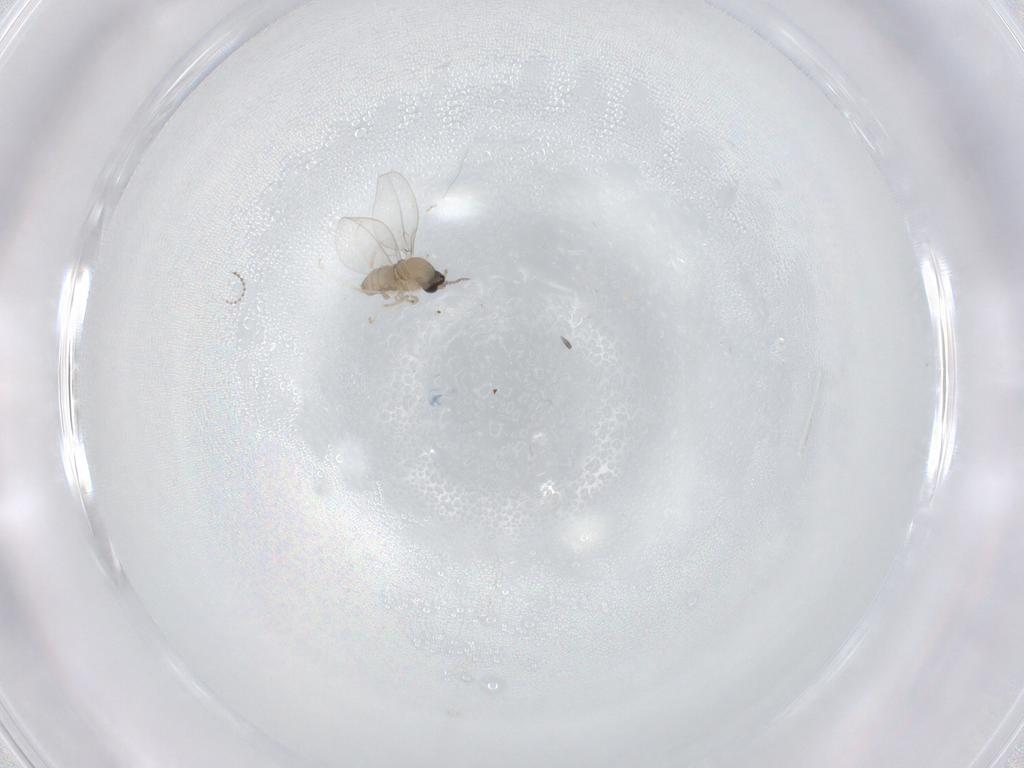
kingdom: Animalia
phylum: Arthropoda
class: Insecta
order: Diptera
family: Cecidomyiidae
